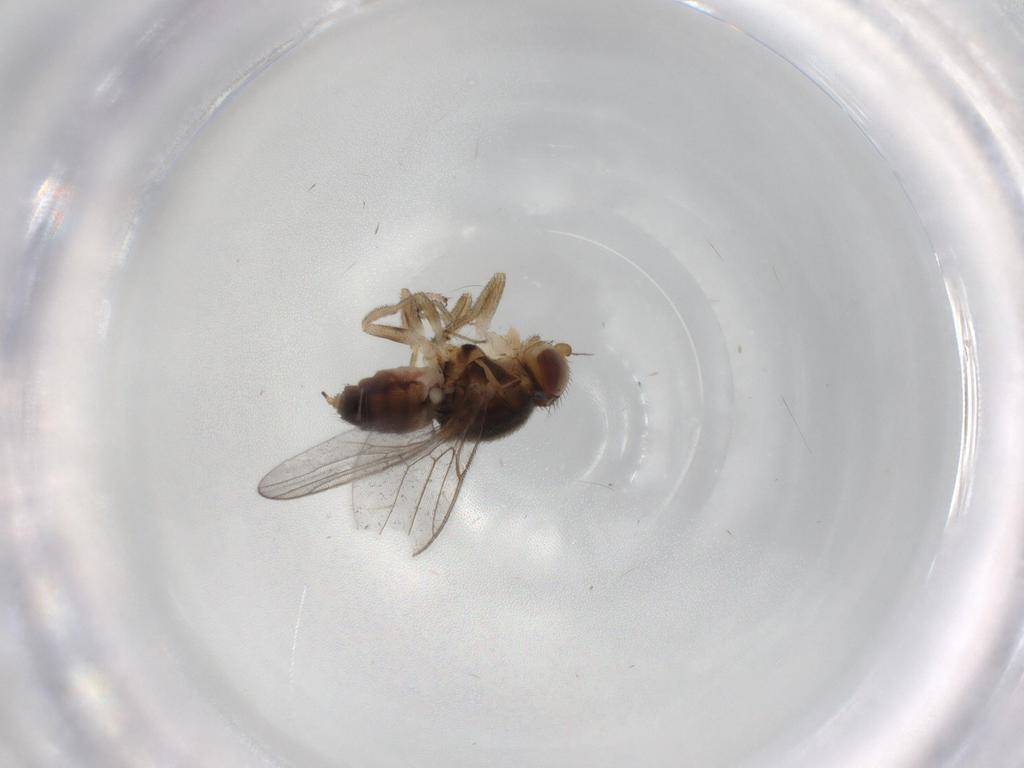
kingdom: Animalia
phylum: Arthropoda
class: Insecta
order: Diptera
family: Chloropidae
